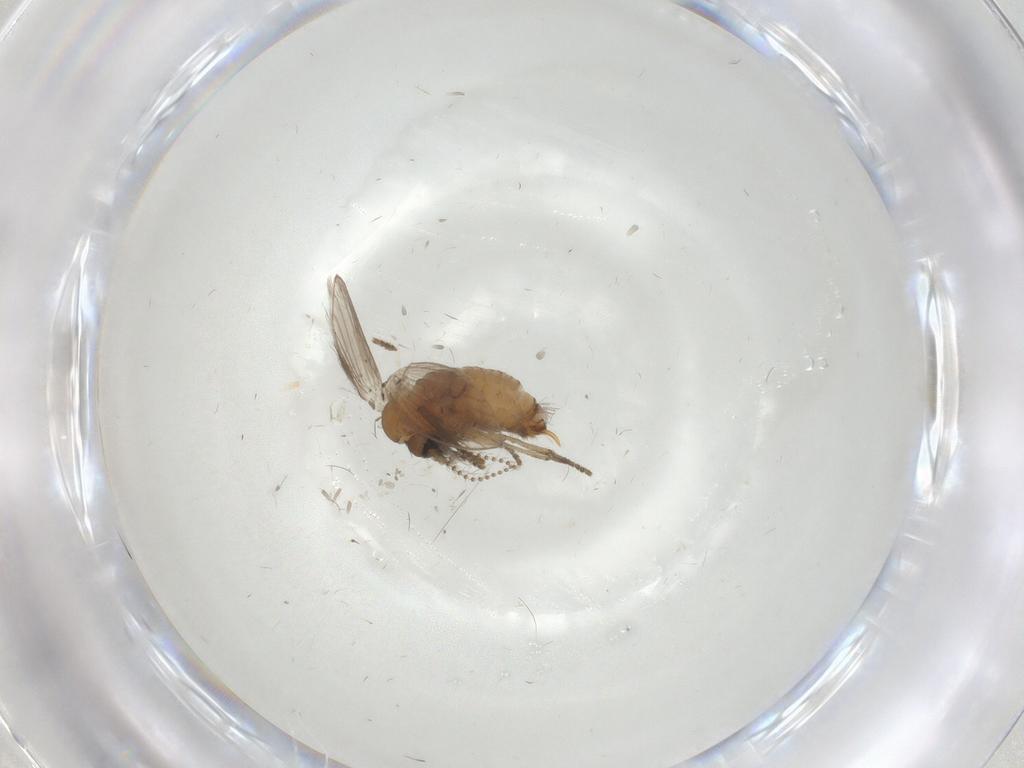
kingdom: Animalia
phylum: Arthropoda
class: Insecta
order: Diptera
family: Psychodidae
